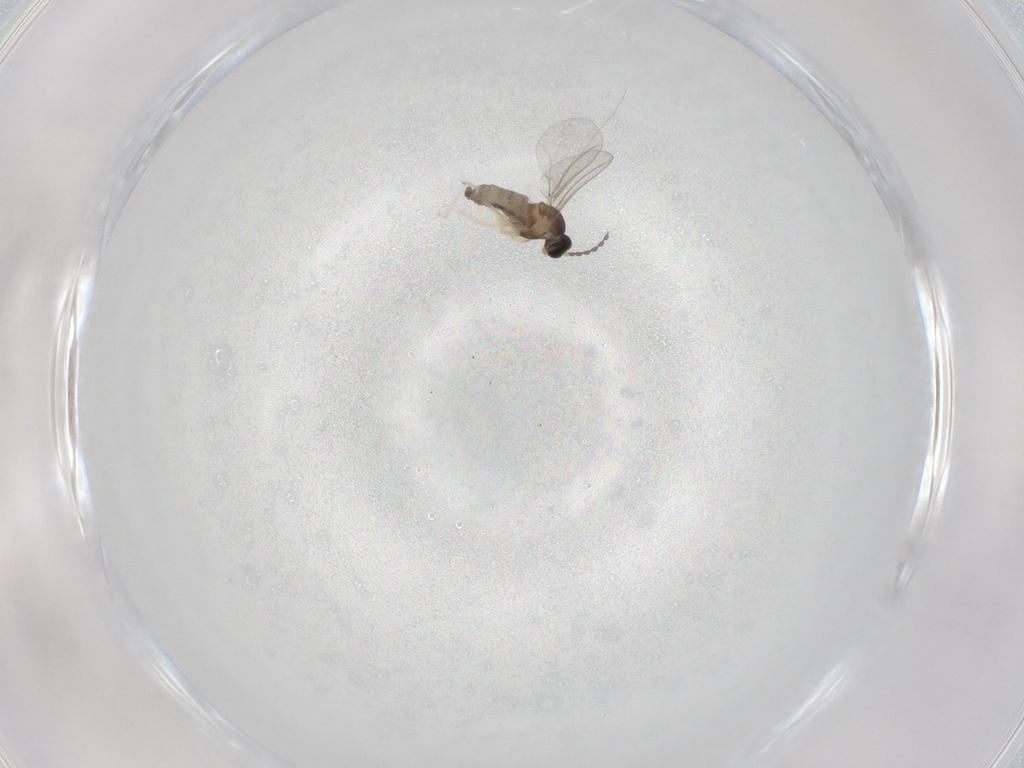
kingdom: Animalia
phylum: Arthropoda
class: Insecta
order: Diptera
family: Cecidomyiidae
